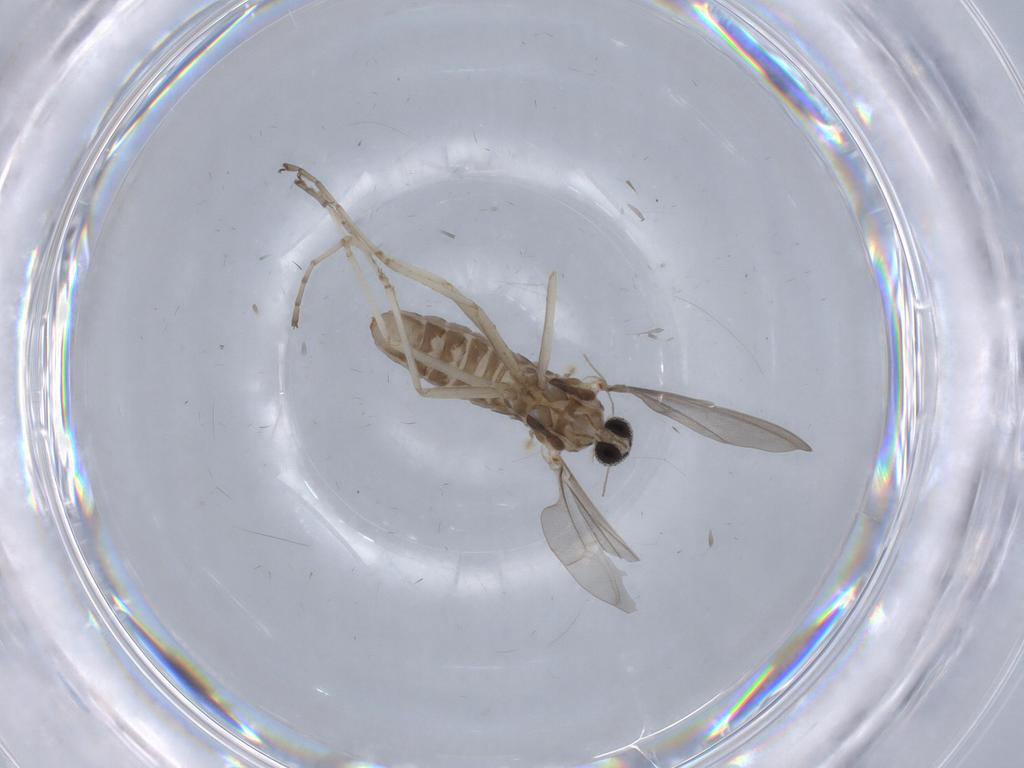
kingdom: Animalia
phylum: Arthropoda
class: Insecta
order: Diptera
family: Cecidomyiidae
